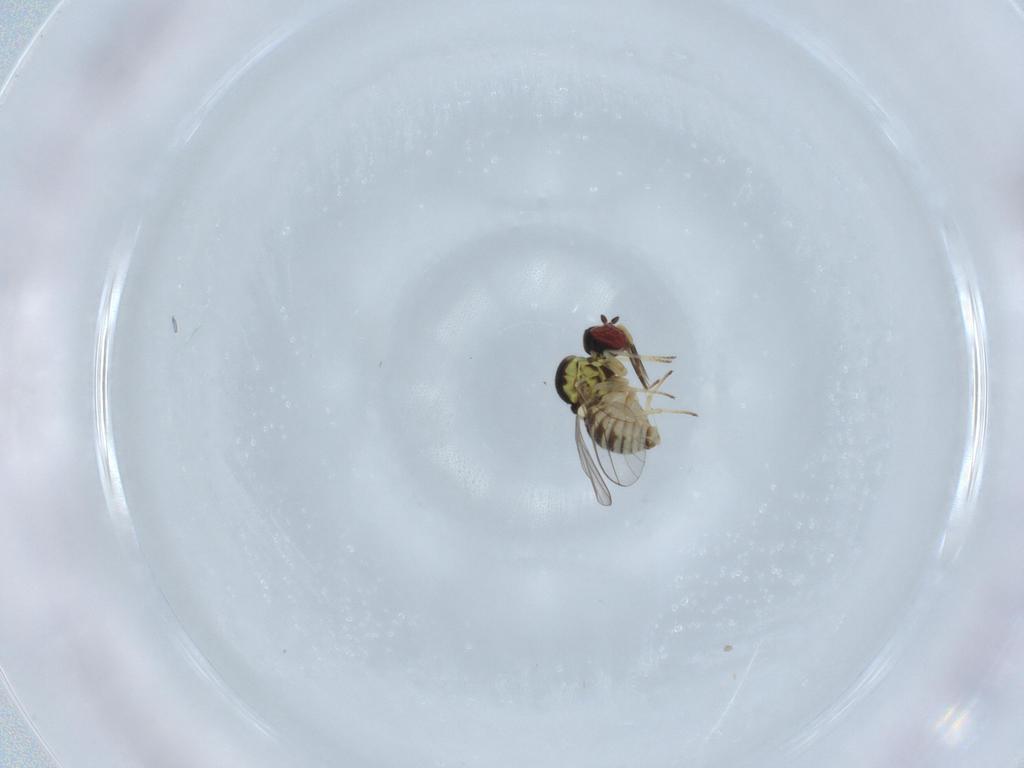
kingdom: Animalia
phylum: Arthropoda
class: Insecta
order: Diptera
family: Bombyliidae
